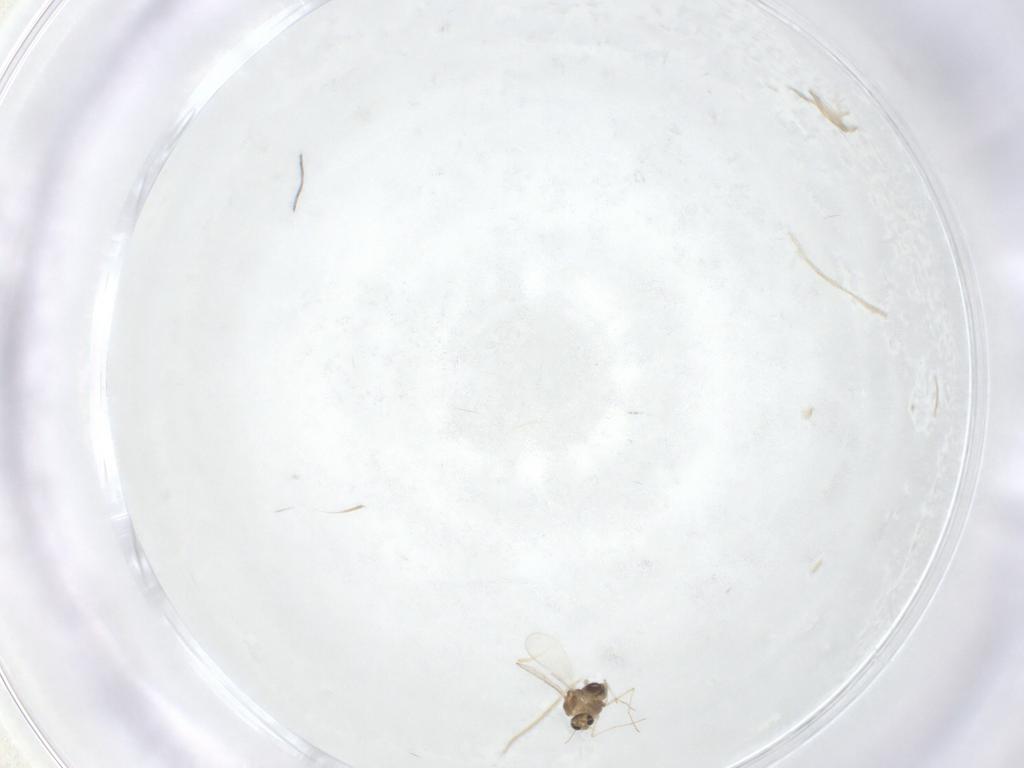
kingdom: Animalia
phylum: Arthropoda
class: Insecta
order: Diptera
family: Chironomidae
